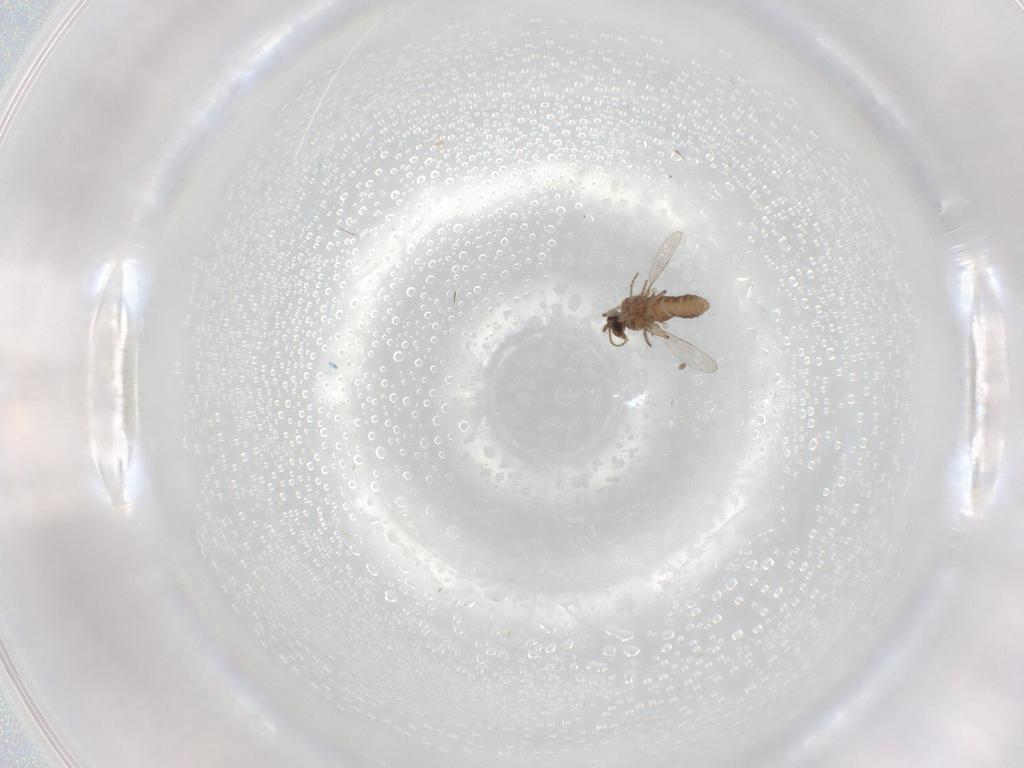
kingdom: Animalia
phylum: Arthropoda
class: Insecta
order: Diptera
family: Ceratopogonidae
